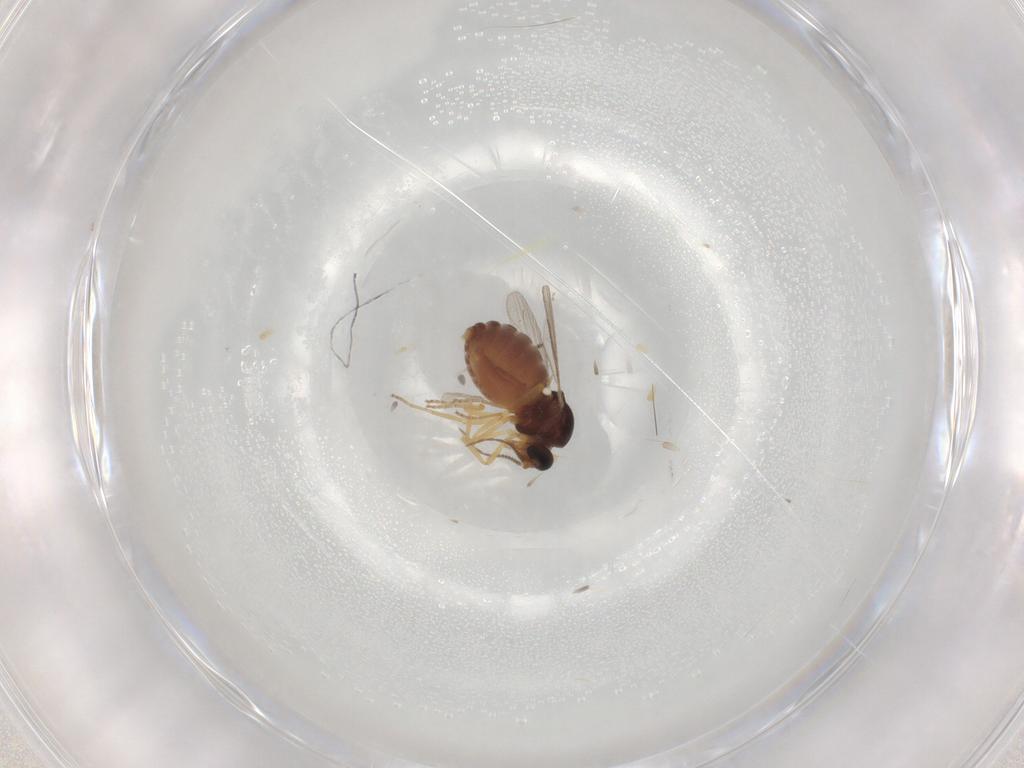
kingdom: Animalia
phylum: Arthropoda
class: Insecta
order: Diptera
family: Ceratopogonidae
